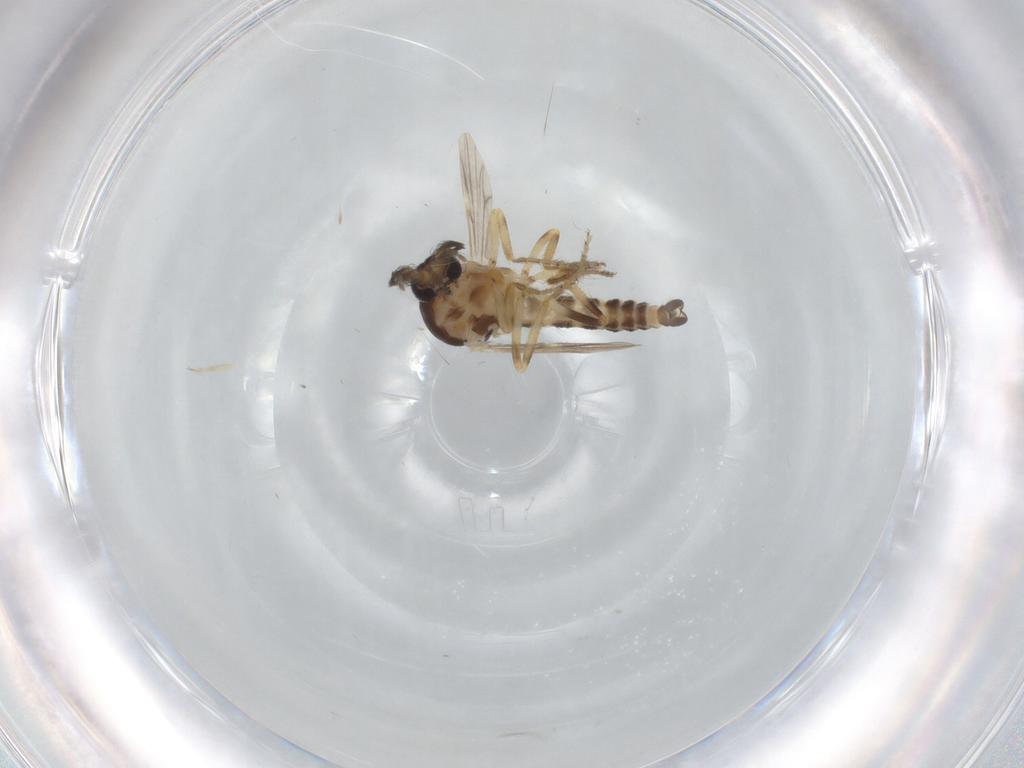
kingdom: Animalia
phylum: Arthropoda
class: Insecta
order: Diptera
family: Ceratopogonidae
